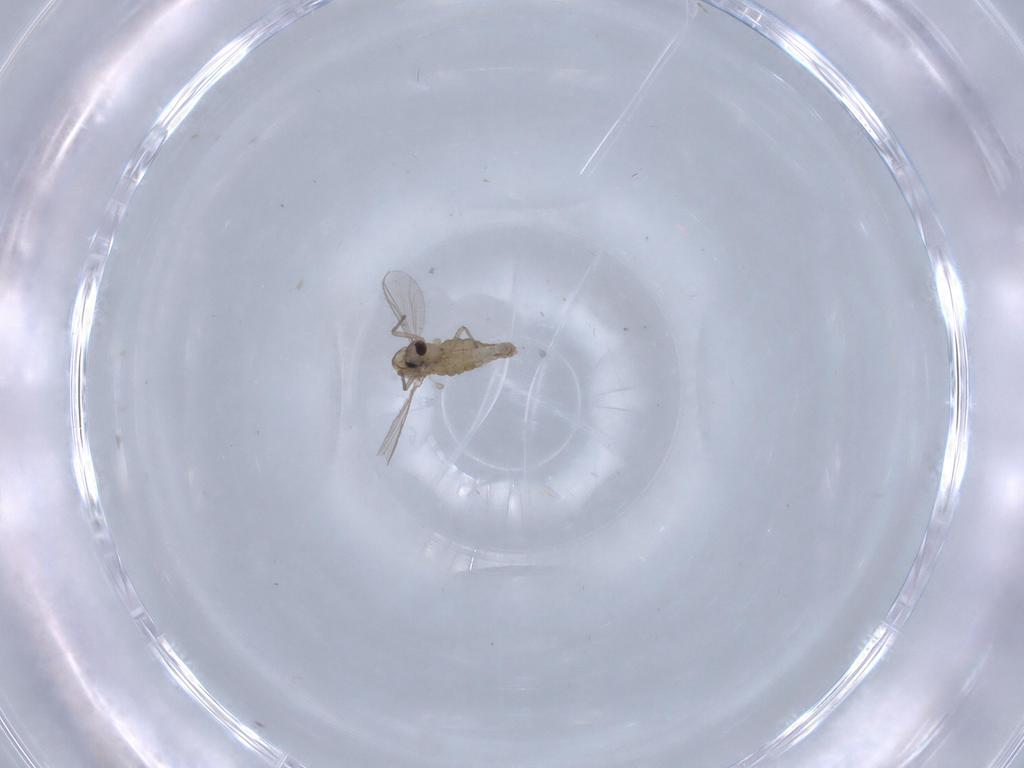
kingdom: Animalia
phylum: Arthropoda
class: Insecta
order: Diptera
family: Chironomidae
